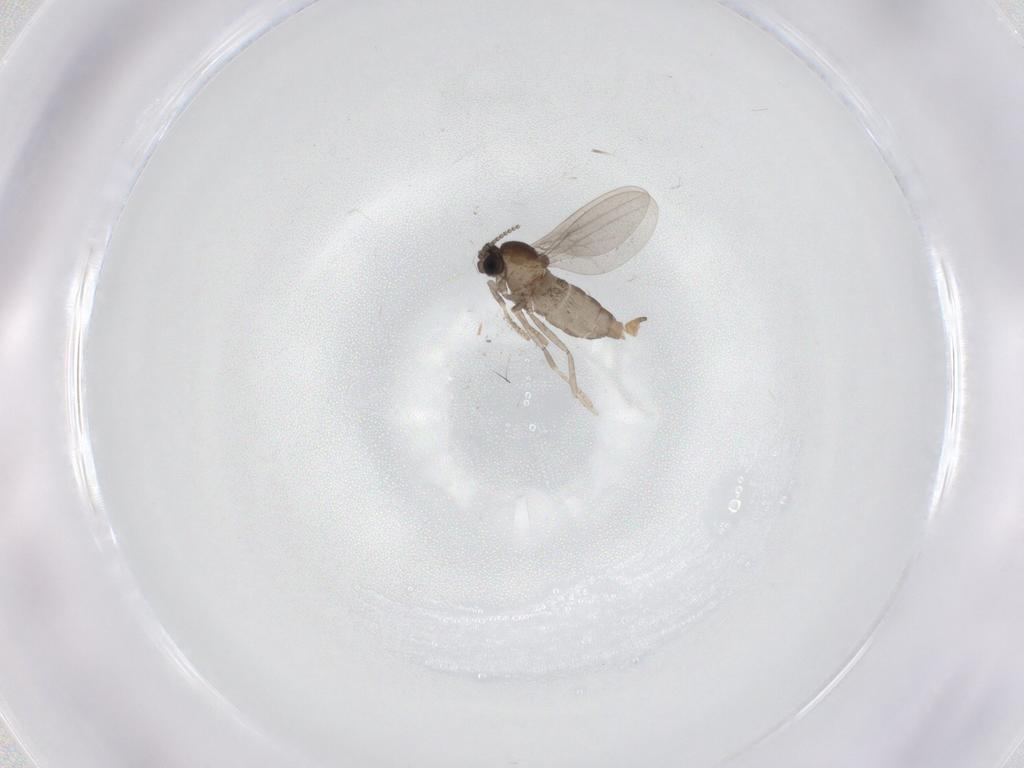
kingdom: Animalia
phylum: Arthropoda
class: Insecta
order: Diptera
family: Cecidomyiidae
